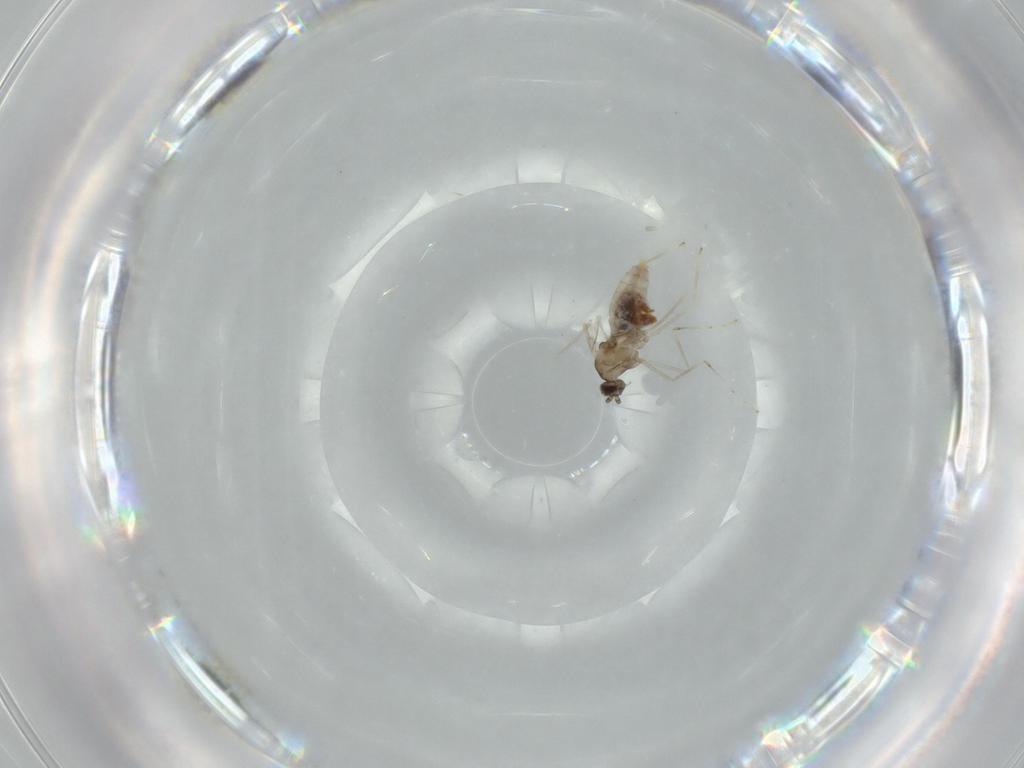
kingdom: Animalia
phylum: Arthropoda
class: Insecta
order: Diptera
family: Cecidomyiidae
